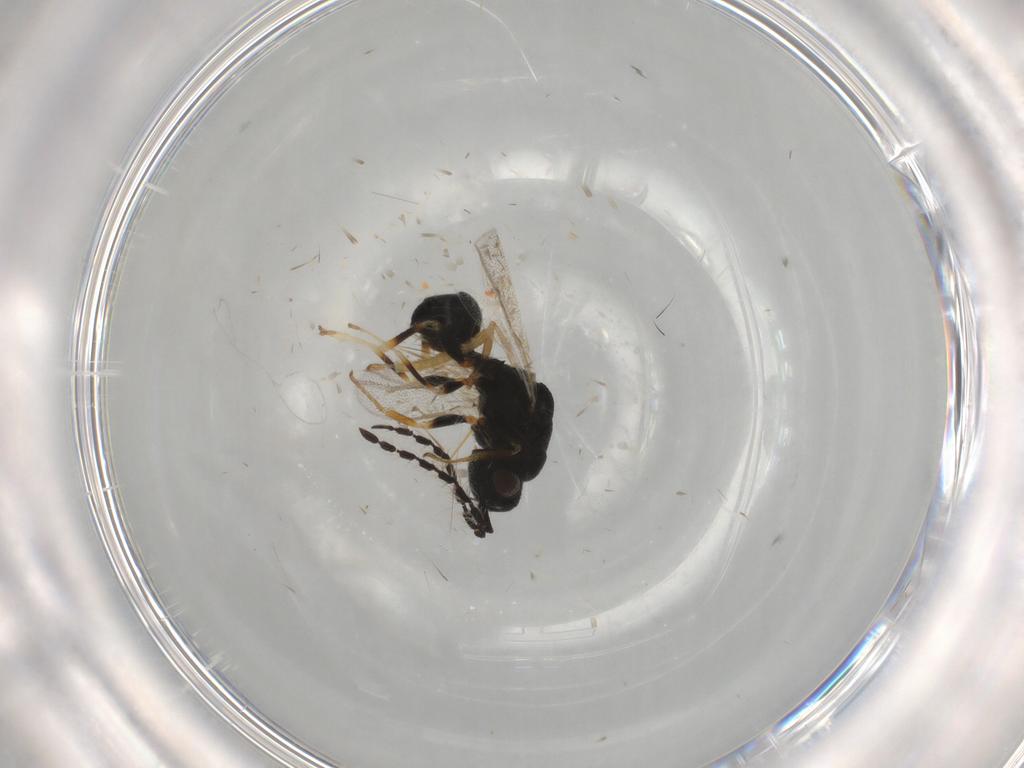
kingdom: Animalia
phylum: Arthropoda
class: Insecta
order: Hymenoptera
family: Eurytomidae
